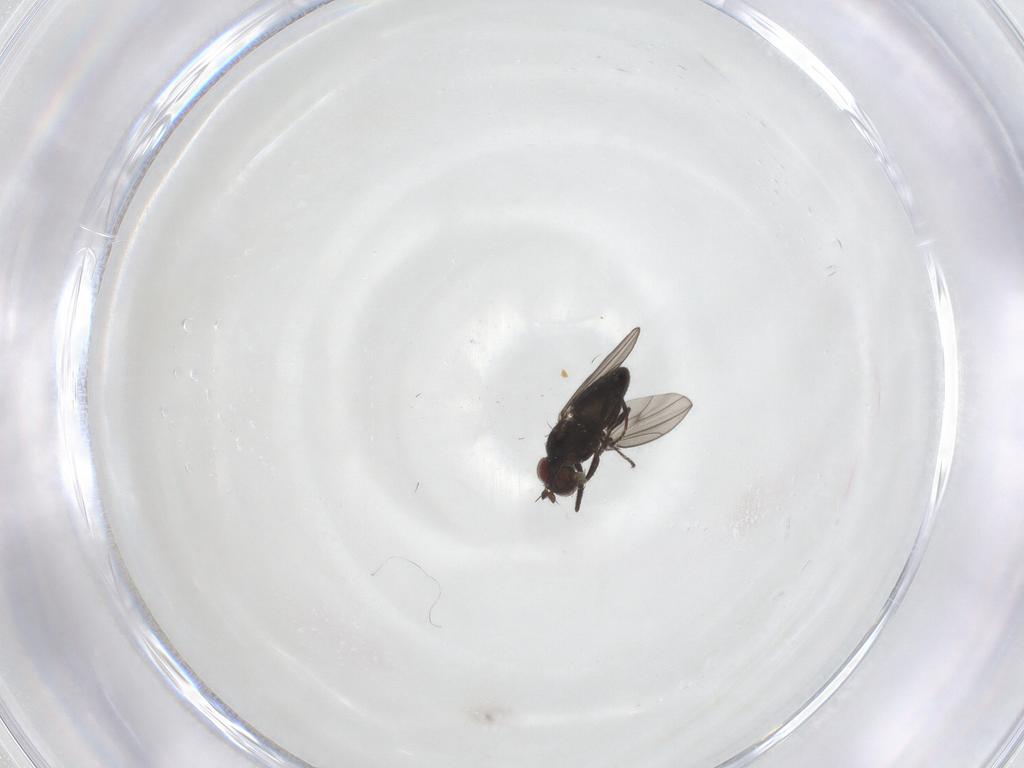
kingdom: Animalia
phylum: Arthropoda
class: Insecta
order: Diptera
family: Ephydridae
